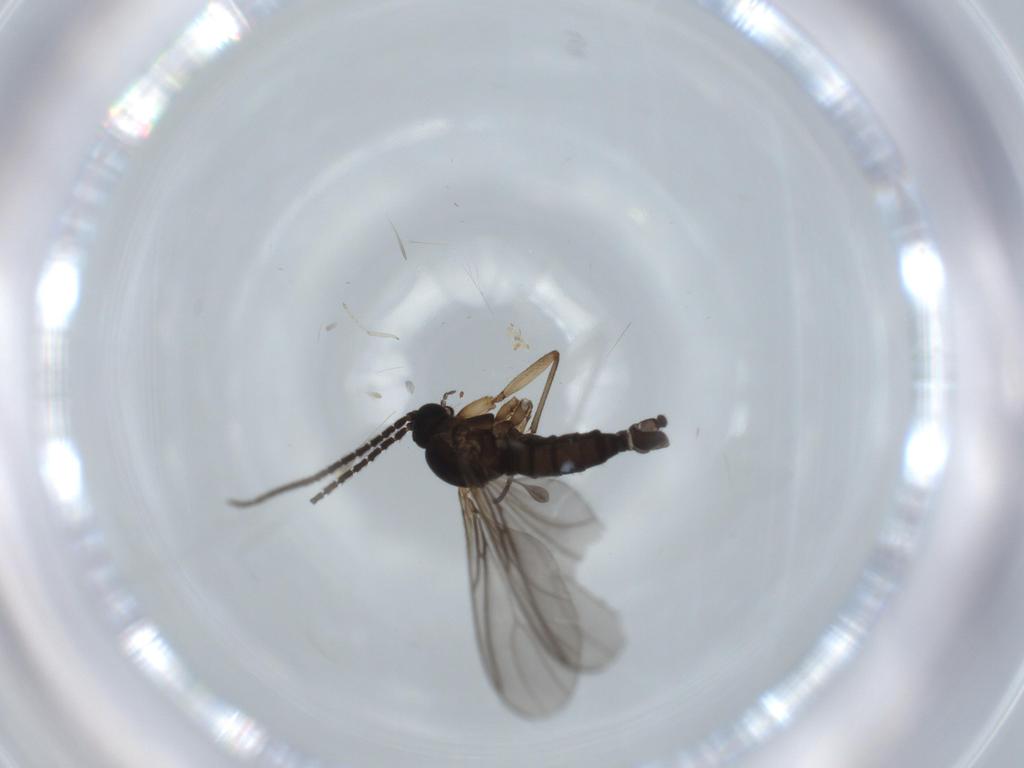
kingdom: Animalia
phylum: Arthropoda
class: Insecta
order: Diptera
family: Sciaridae
